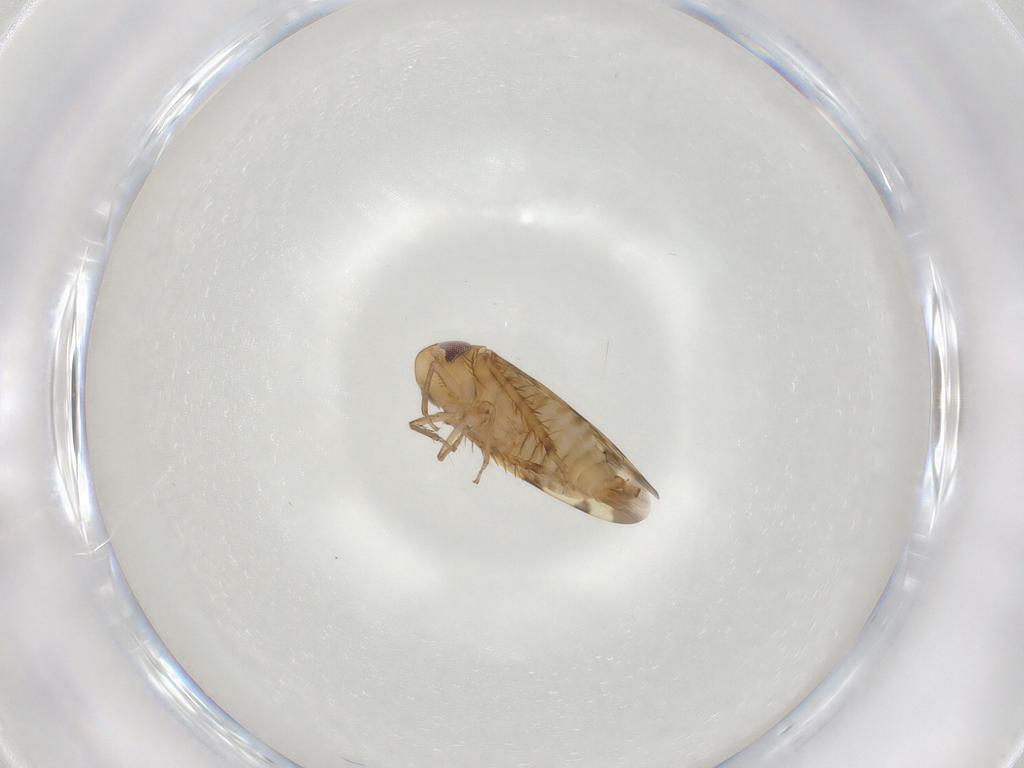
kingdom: Animalia
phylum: Arthropoda
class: Insecta
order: Hemiptera
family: Cicadellidae
